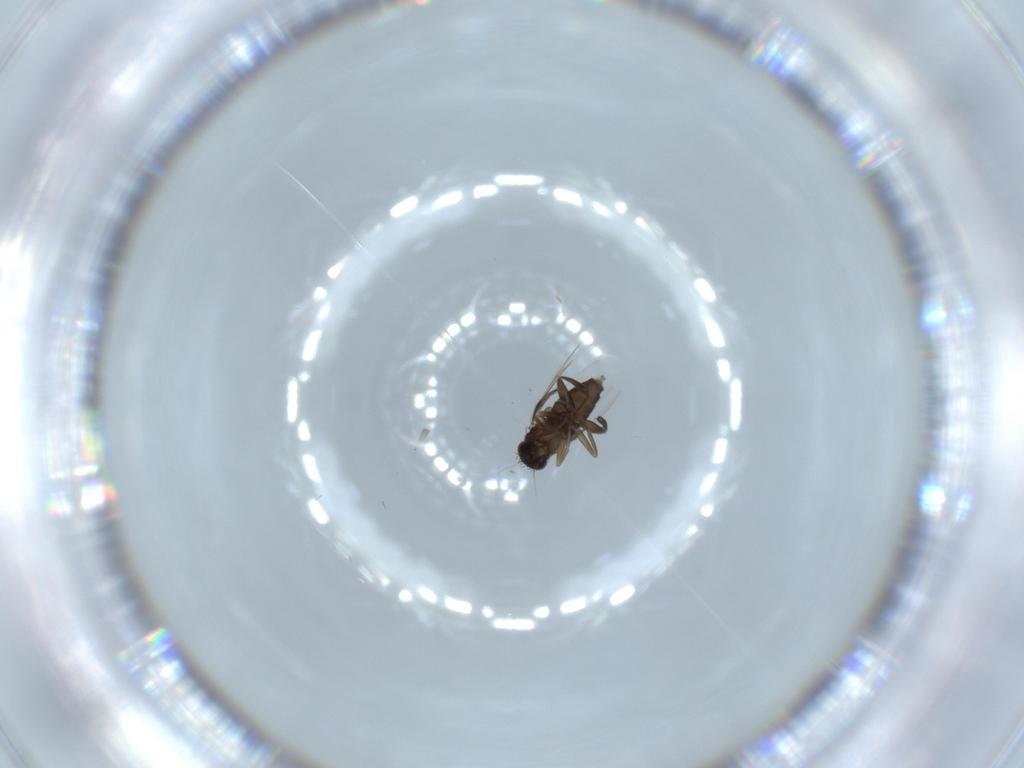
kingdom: Animalia
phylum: Arthropoda
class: Insecta
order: Diptera
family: Phoridae
